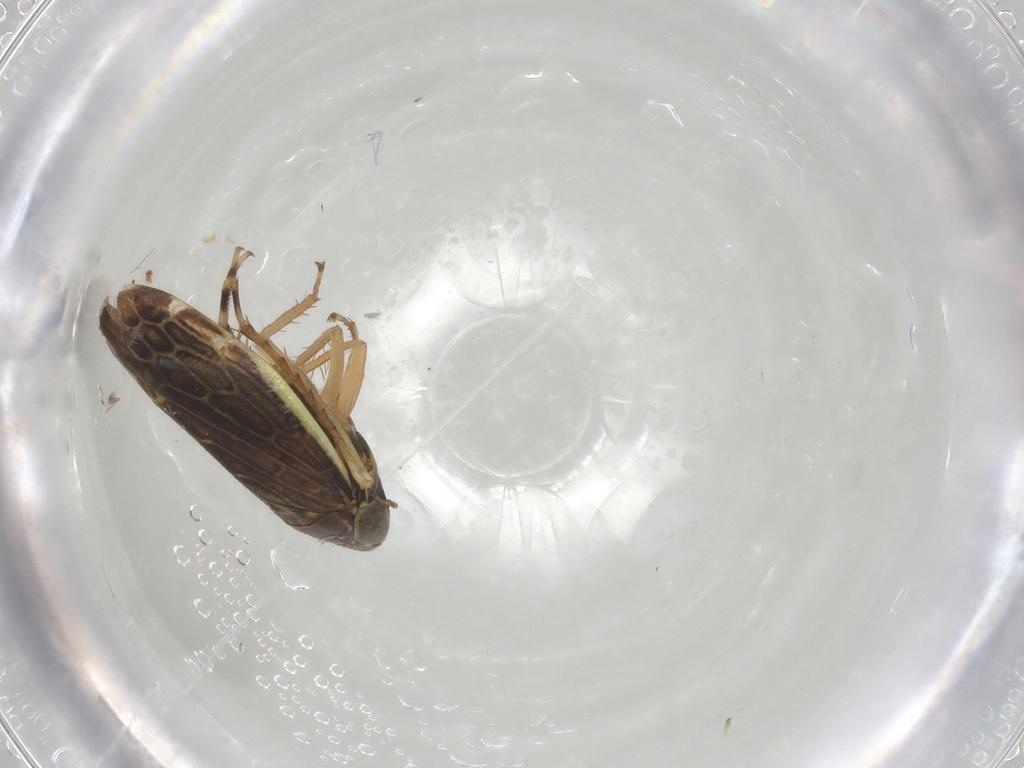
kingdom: Animalia
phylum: Arthropoda
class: Insecta
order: Hemiptera
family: Cicadellidae
